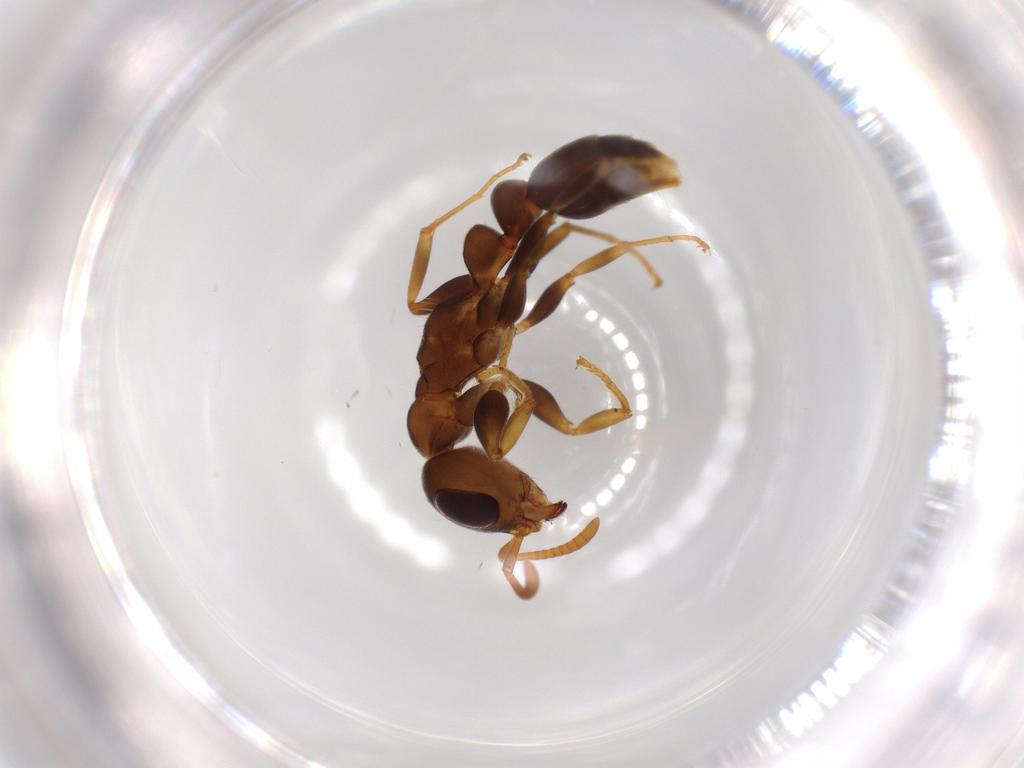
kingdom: Animalia
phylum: Arthropoda
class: Insecta
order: Hymenoptera
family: Formicidae
